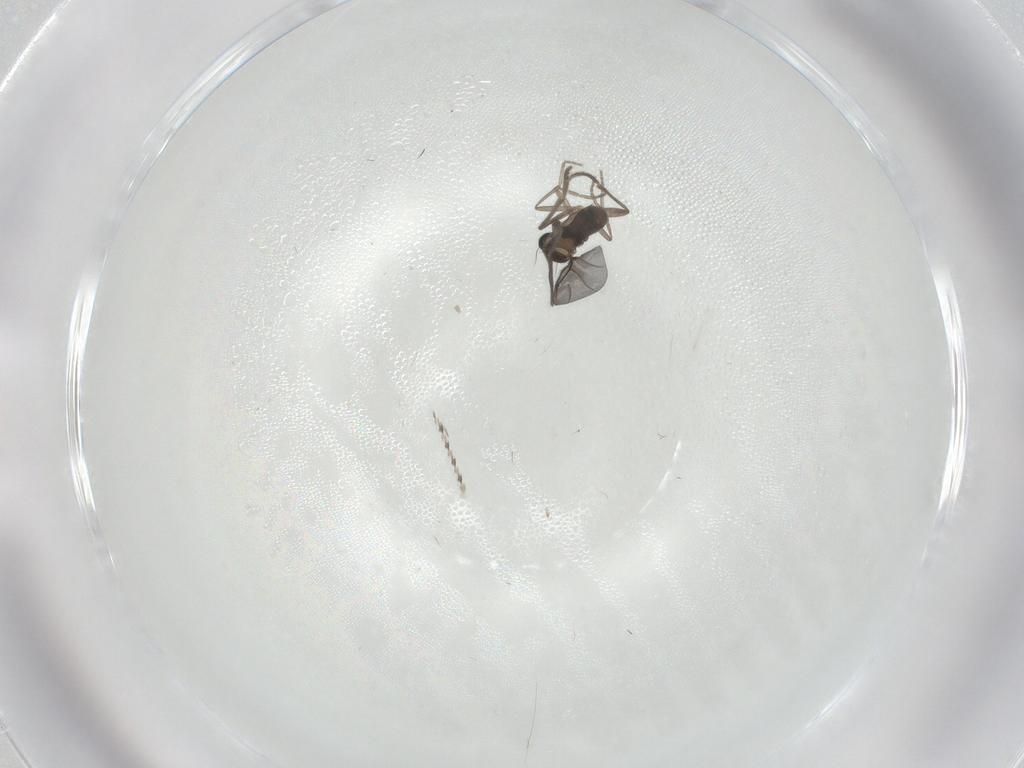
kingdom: Animalia
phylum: Arthropoda
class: Insecta
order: Diptera
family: Cecidomyiidae
